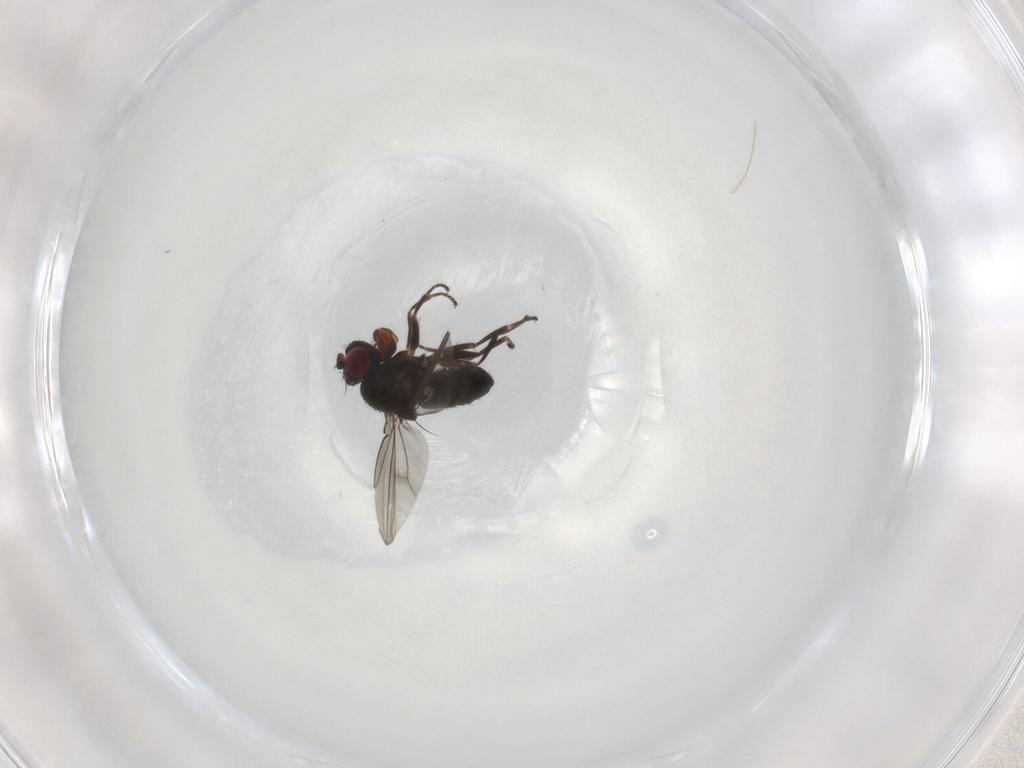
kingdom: Animalia
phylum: Arthropoda
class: Insecta
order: Diptera
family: Ephydridae
